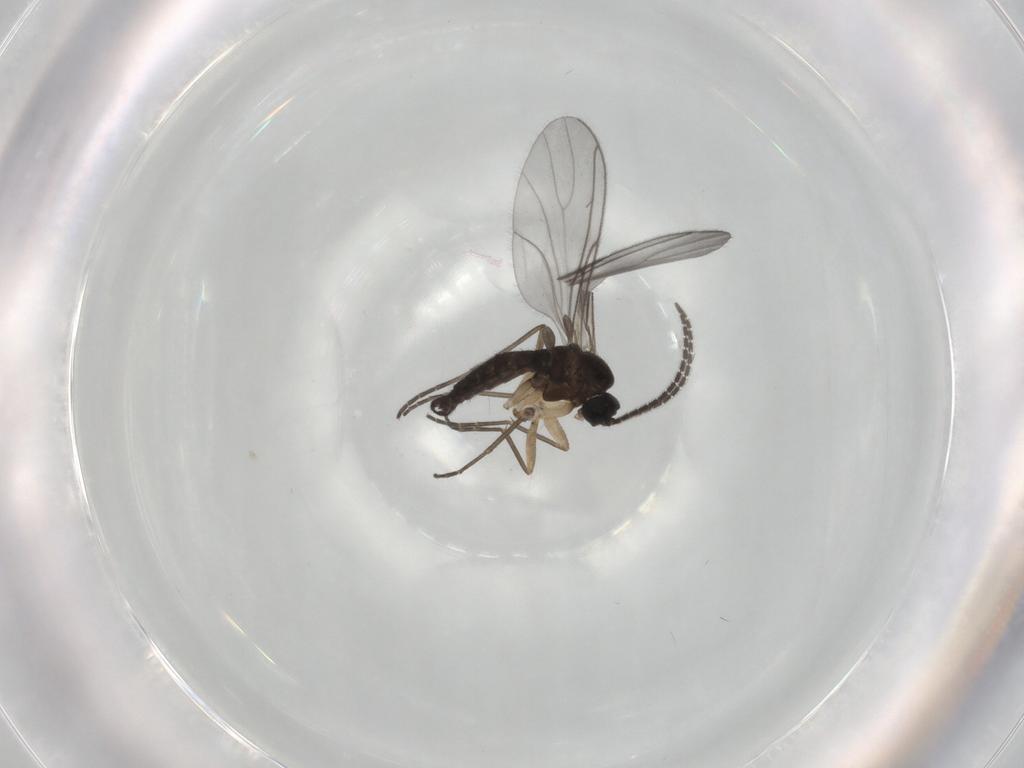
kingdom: Animalia
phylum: Arthropoda
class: Insecta
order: Diptera
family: Sciaridae
